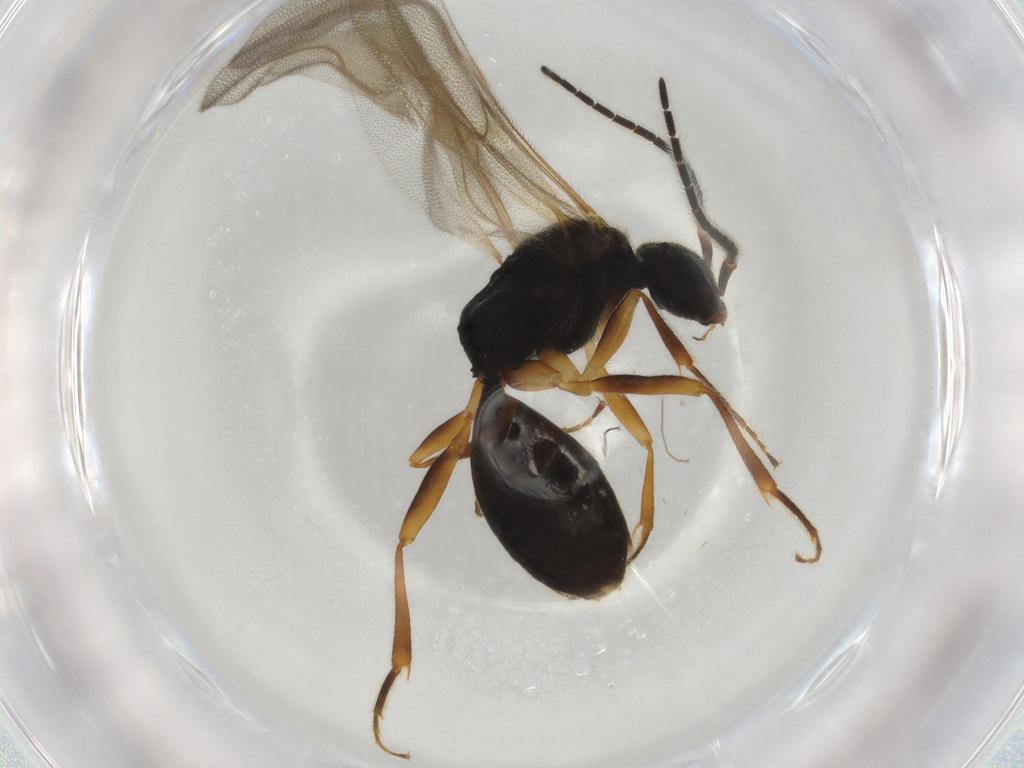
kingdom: Animalia
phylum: Arthropoda
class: Insecta
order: Hymenoptera
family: Bethylidae
